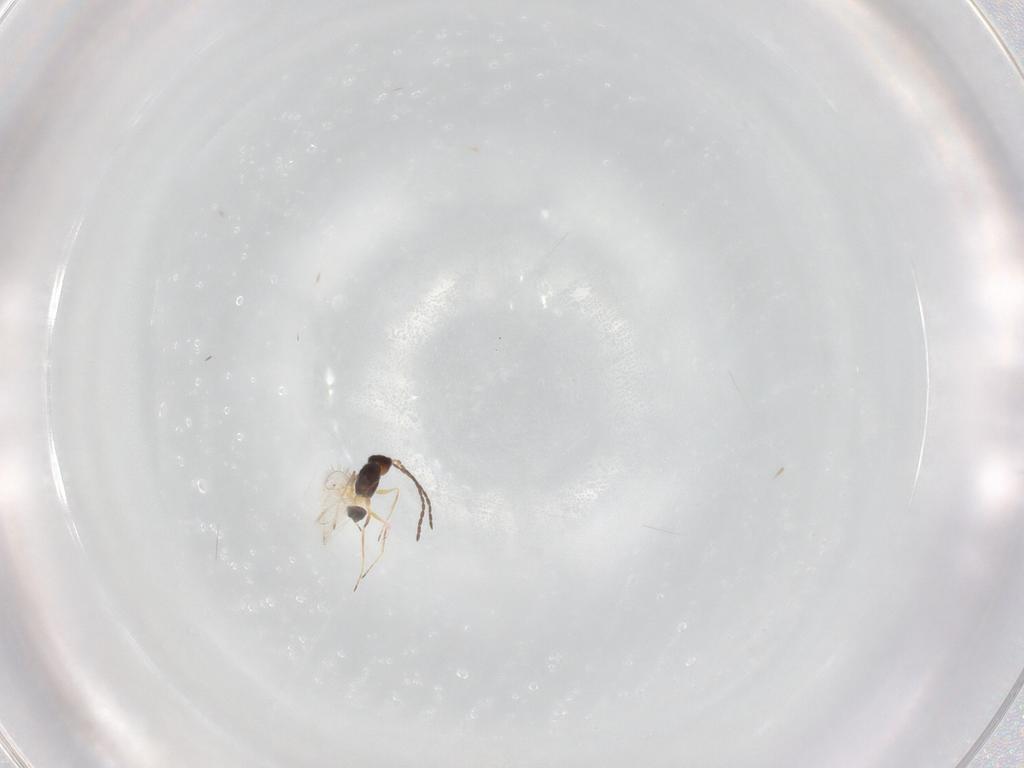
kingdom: Animalia
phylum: Arthropoda
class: Insecta
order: Hymenoptera
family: Mymaridae
